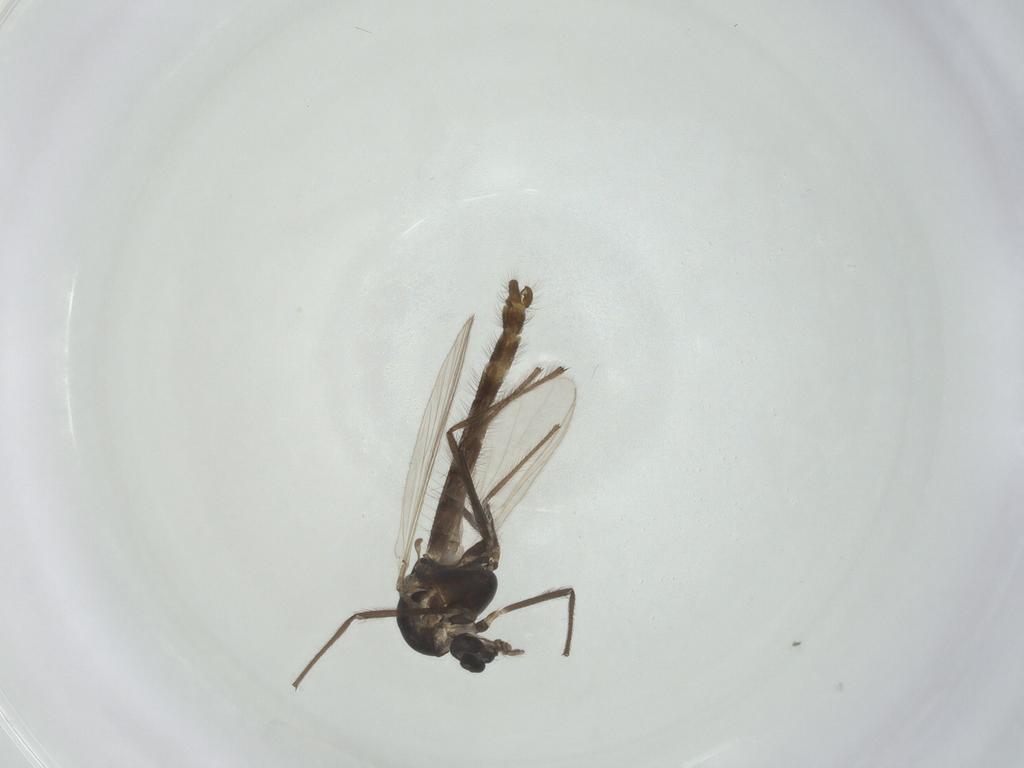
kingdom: Animalia
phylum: Arthropoda
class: Insecta
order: Diptera
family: Chironomidae
